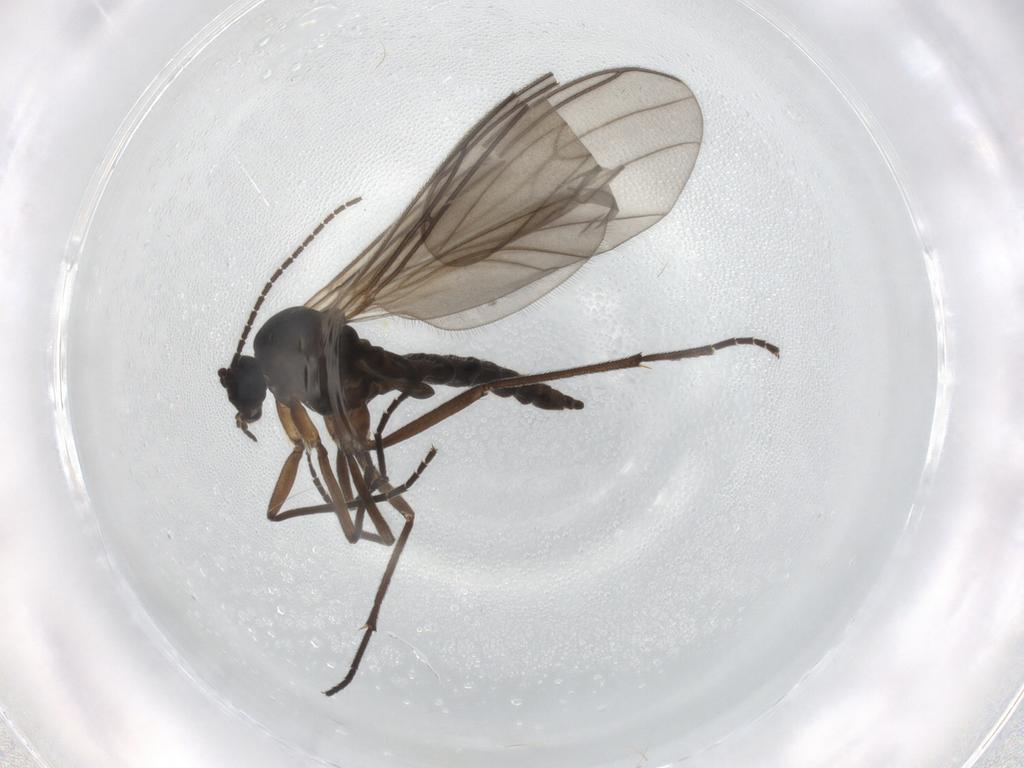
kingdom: Animalia
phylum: Arthropoda
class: Insecta
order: Diptera
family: Sciaridae
